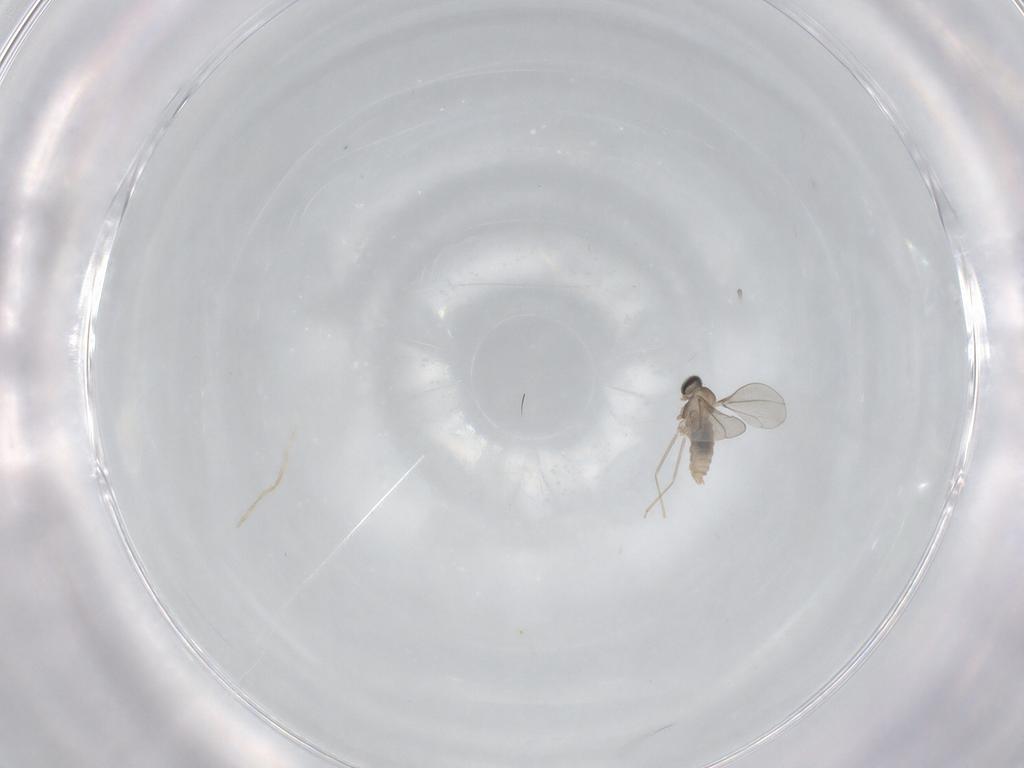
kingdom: Animalia
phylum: Arthropoda
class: Insecta
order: Diptera
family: Cecidomyiidae
